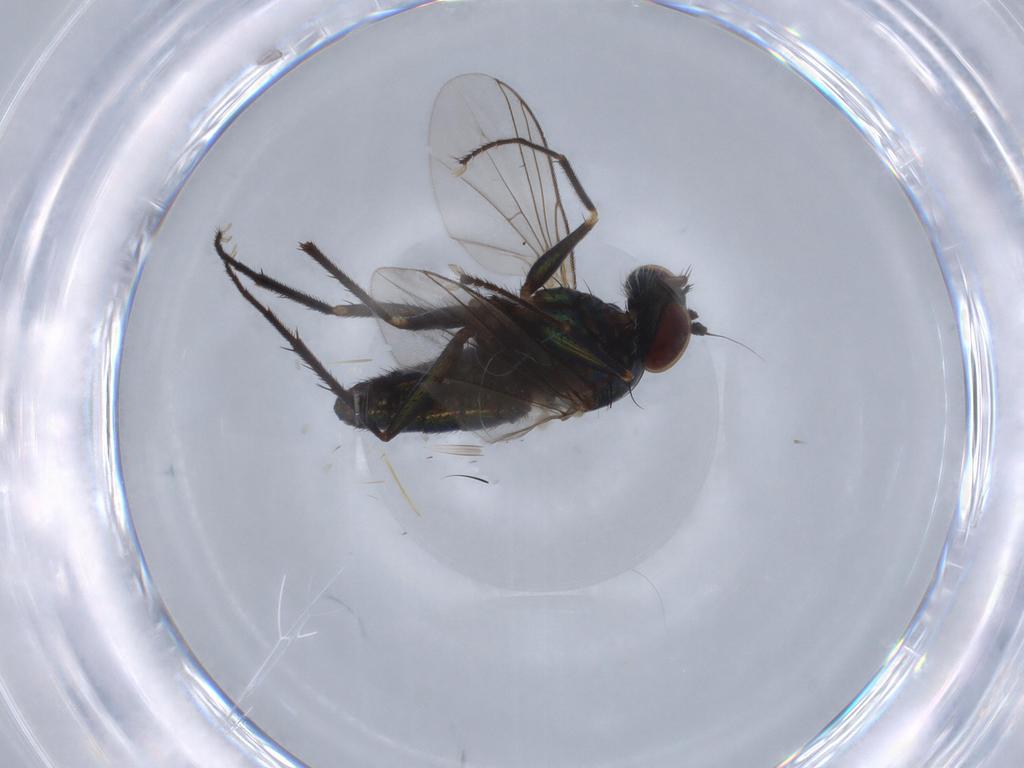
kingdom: Animalia
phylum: Arthropoda
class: Insecta
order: Diptera
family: Dolichopodidae
